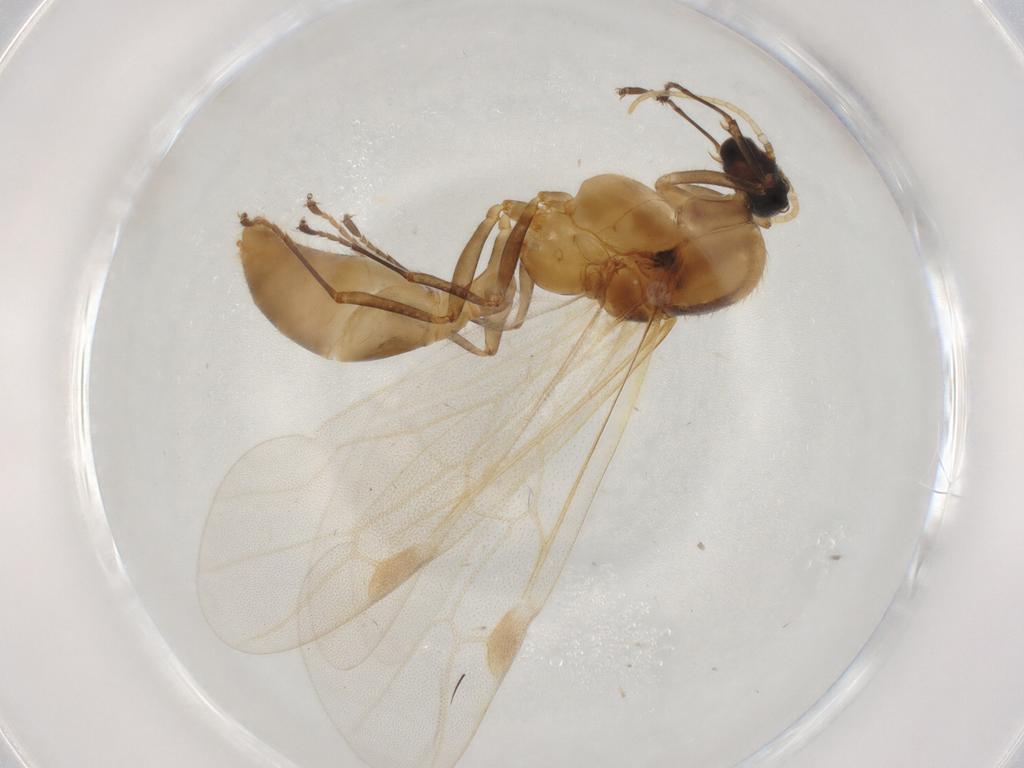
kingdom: Animalia
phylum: Arthropoda
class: Insecta
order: Hymenoptera
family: Formicidae
